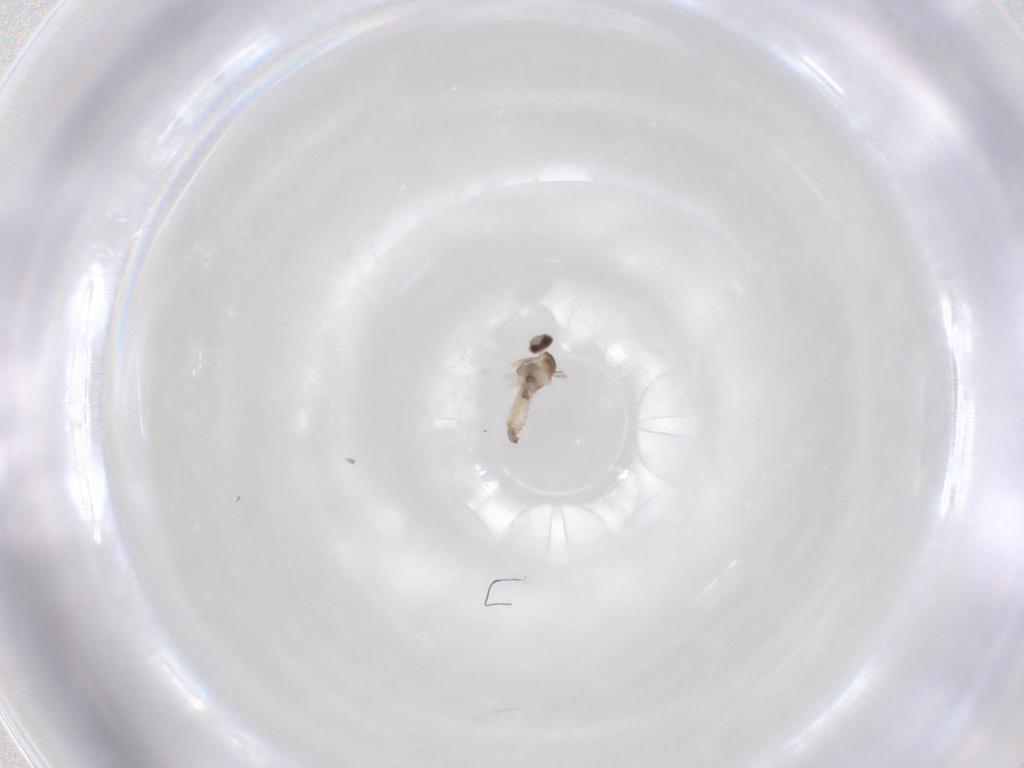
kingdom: Animalia
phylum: Arthropoda
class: Insecta
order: Diptera
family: Cecidomyiidae
